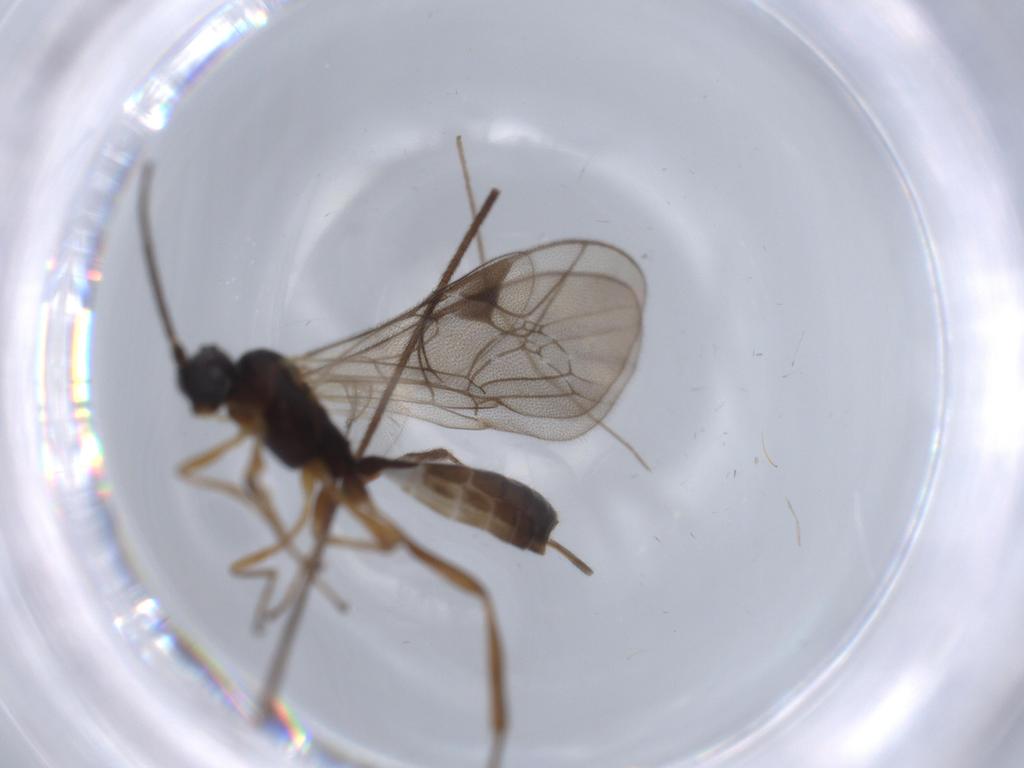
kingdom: Animalia
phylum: Arthropoda
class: Insecta
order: Hymenoptera
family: Ichneumonidae
